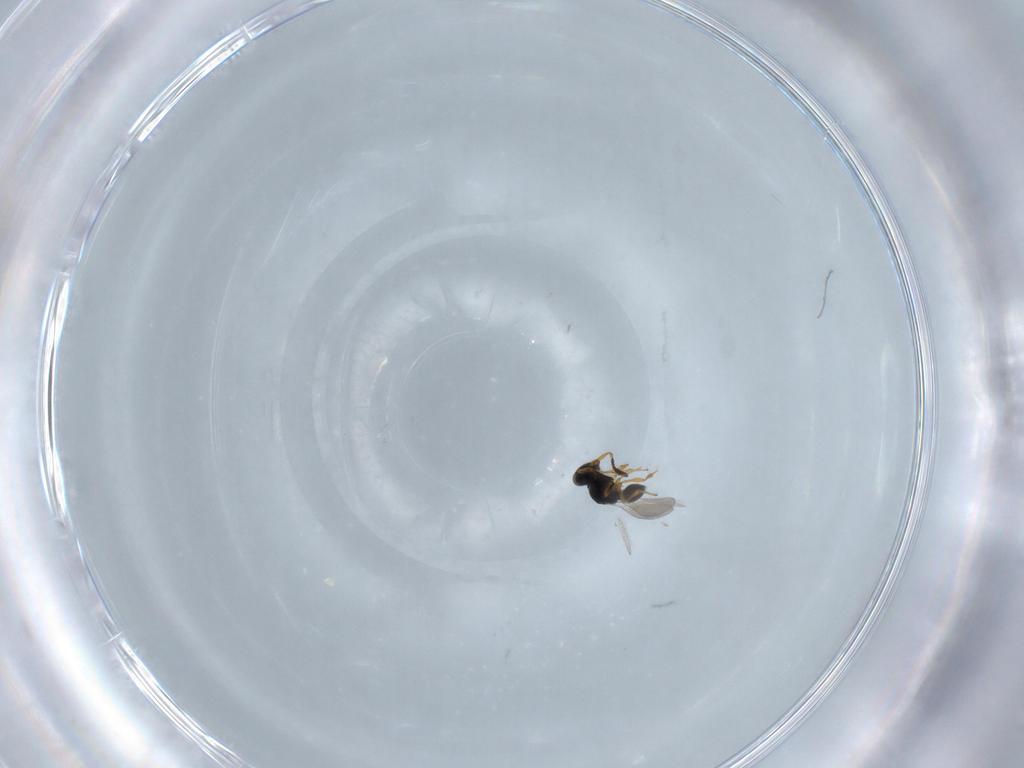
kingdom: Animalia
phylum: Arthropoda
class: Insecta
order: Hymenoptera
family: Platygastridae
